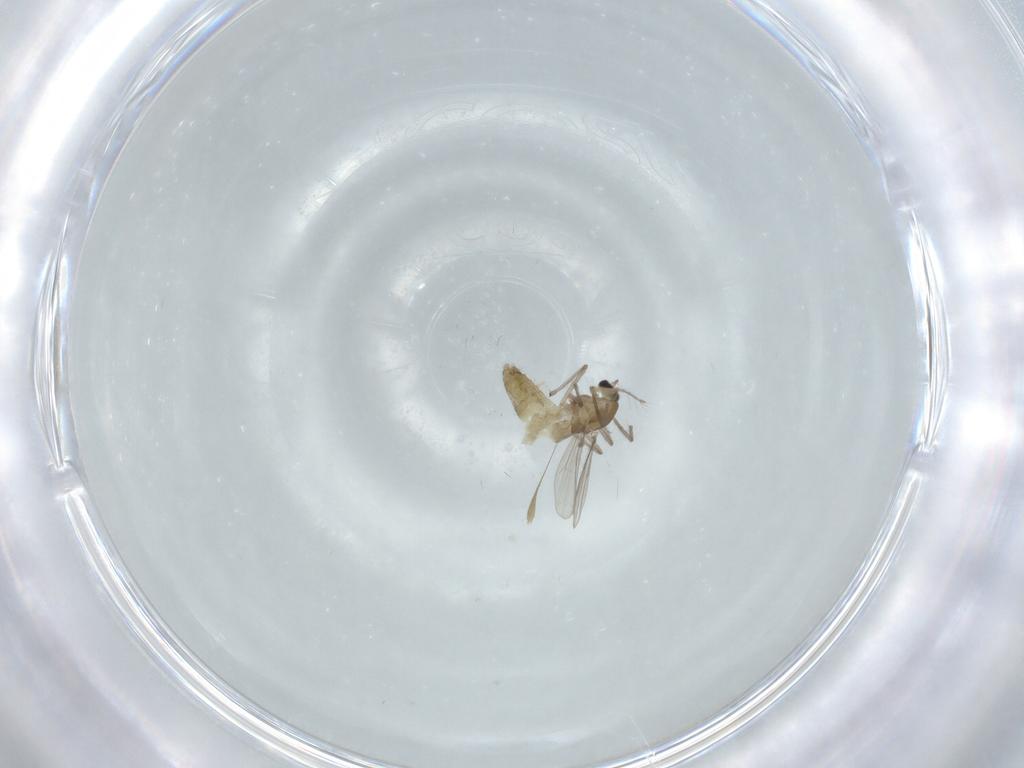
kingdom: Animalia
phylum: Arthropoda
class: Insecta
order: Diptera
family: Chironomidae
